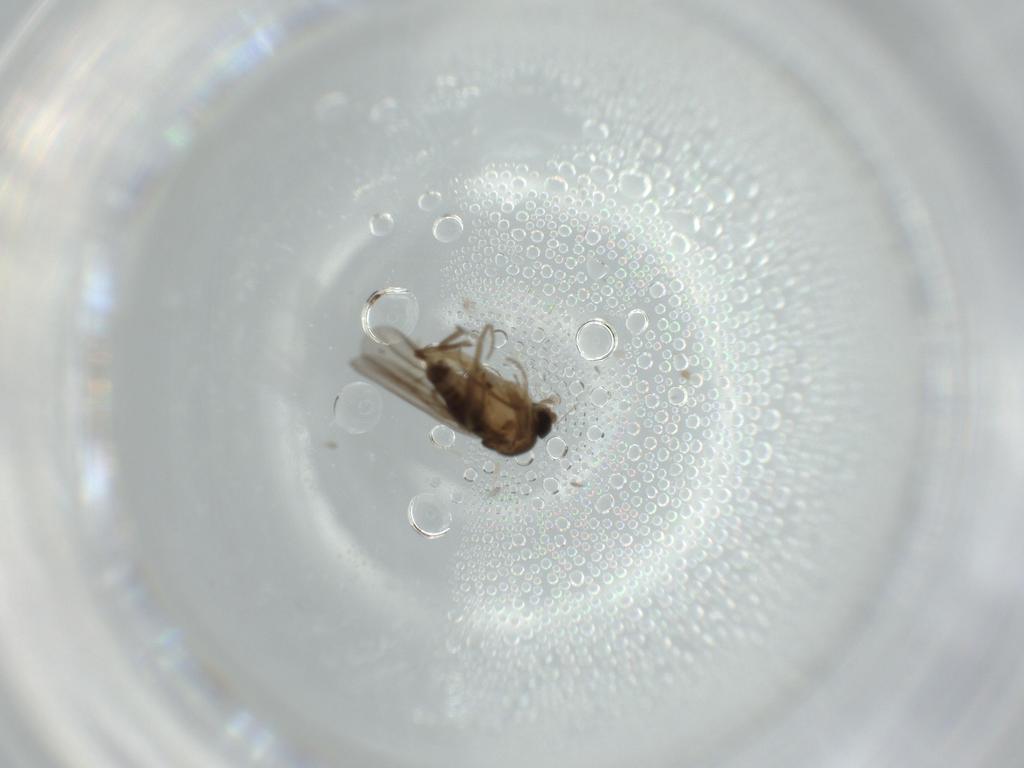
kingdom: Animalia
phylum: Arthropoda
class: Insecta
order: Diptera
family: Phoridae
